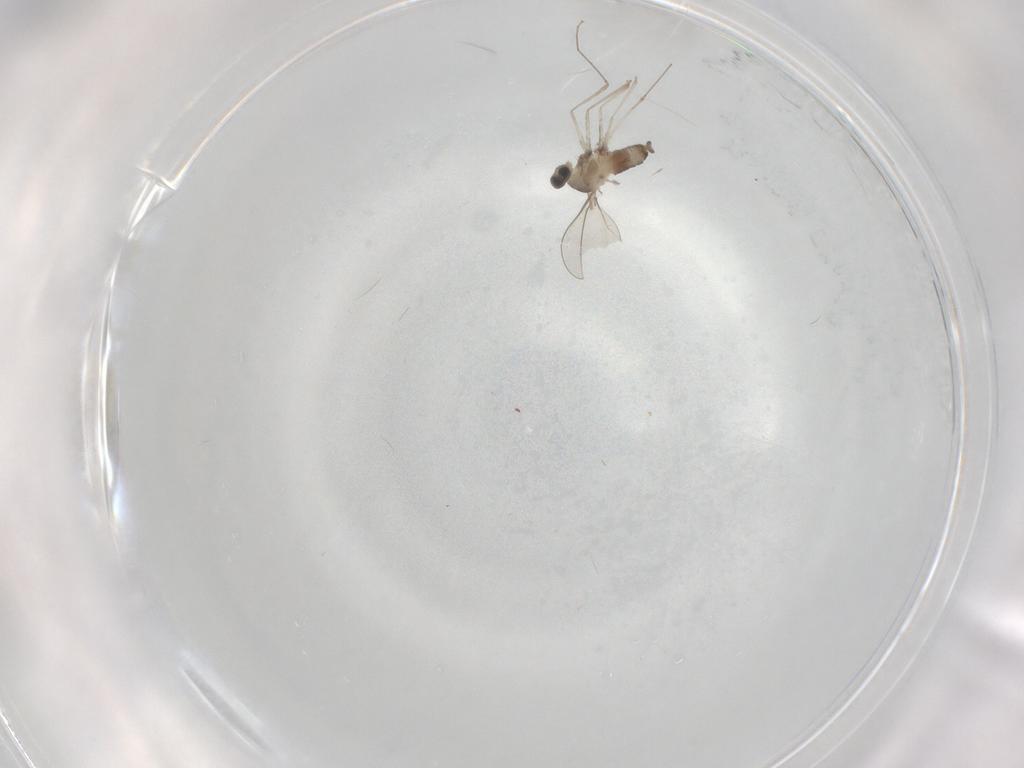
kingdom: Animalia
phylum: Arthropoda
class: Insecta
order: Diptera
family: Cecidomyiidae
